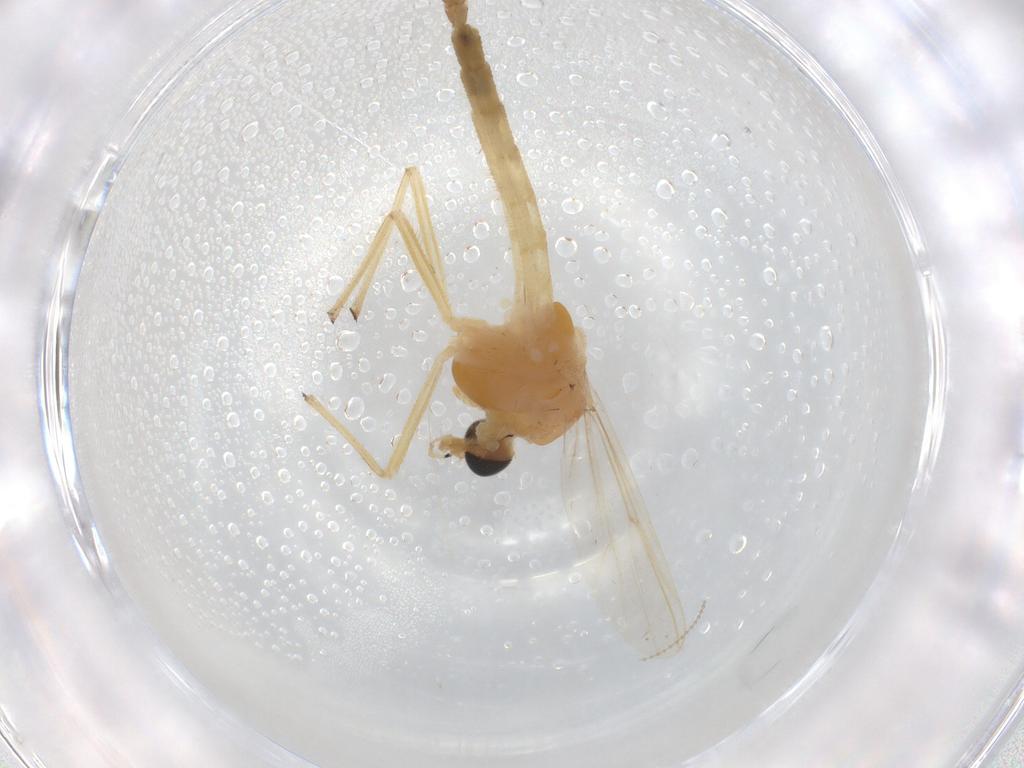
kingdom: Animalia
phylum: Arthropoda
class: Insecta
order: Diptera
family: Chironomidae
